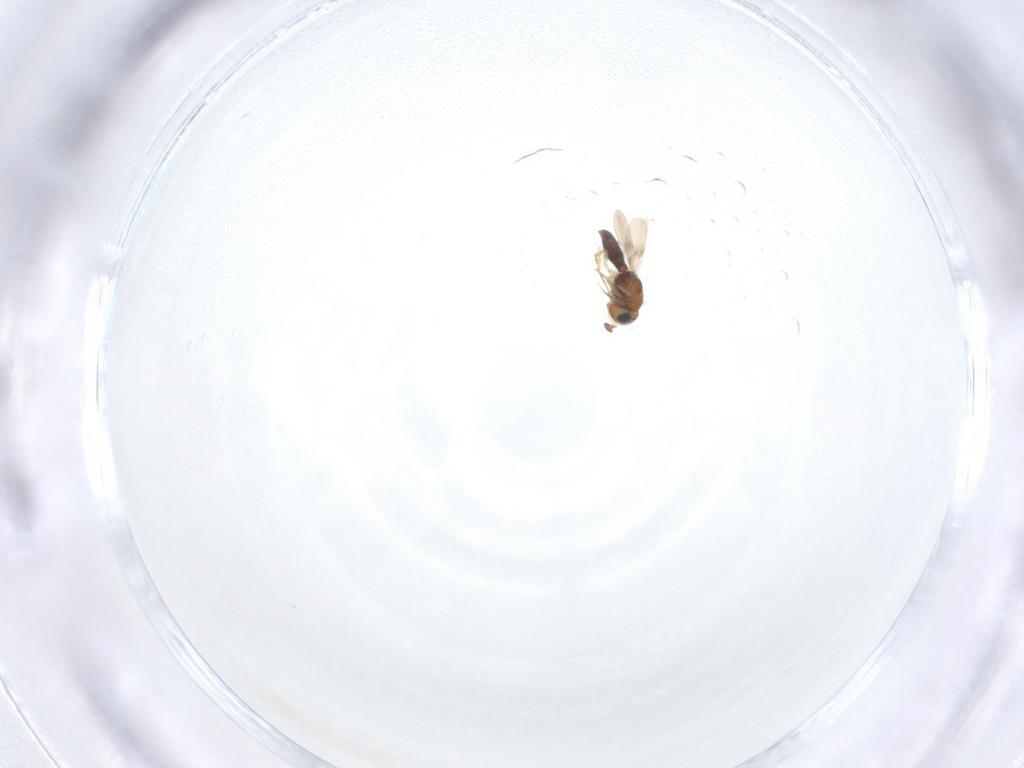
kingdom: Animalia
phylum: Arthropoda
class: Insecta
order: Hymenoptera
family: Scelionidae
